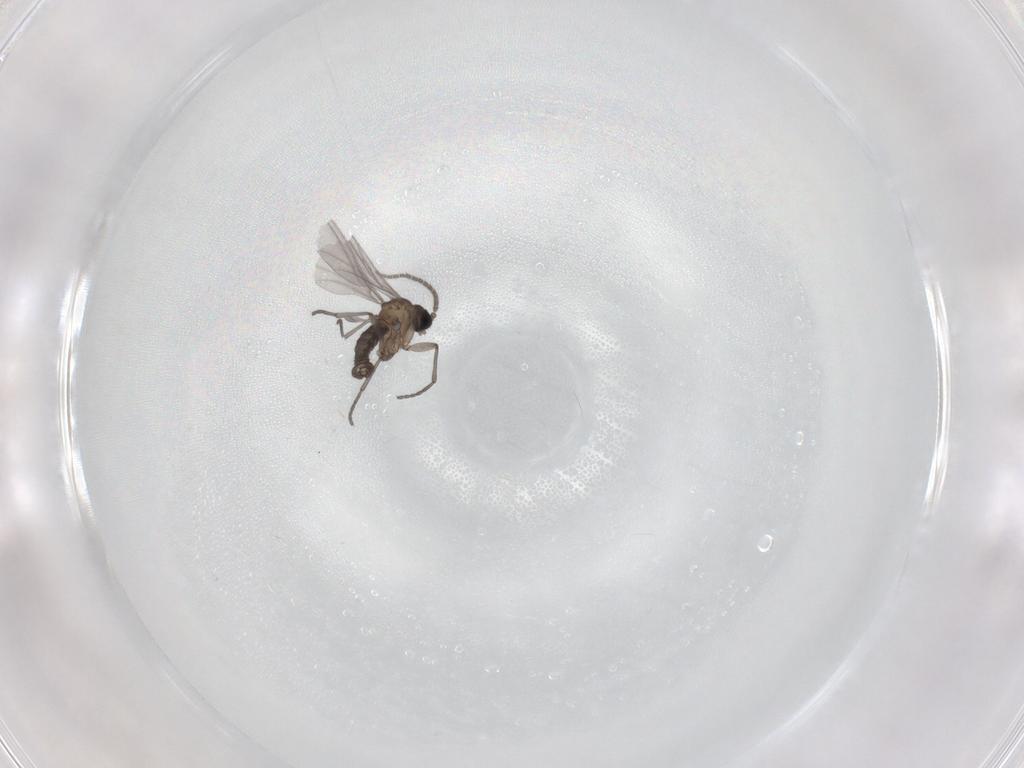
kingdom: Animalia
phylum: Arthropoda
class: Insecta
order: Diptera
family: Sciaridae
